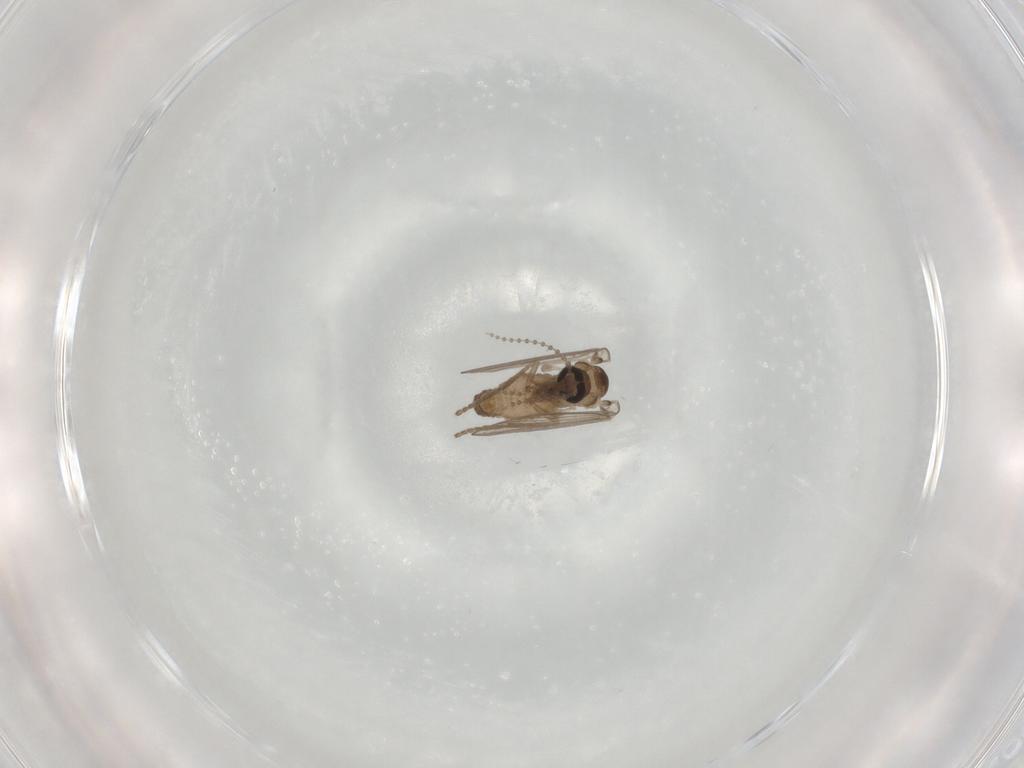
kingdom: Animalia
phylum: Arthropoda
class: Insecta
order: Diptera
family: Psychodidae
